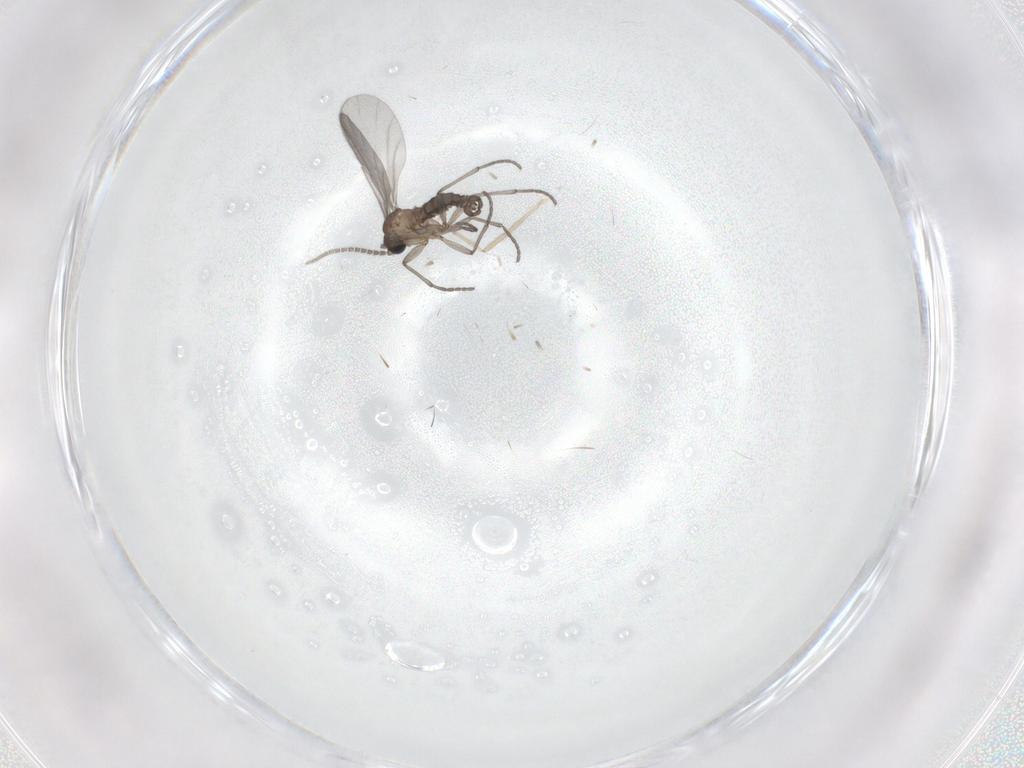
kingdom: Animalia
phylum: Arthropoda
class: Insecta
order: Diptera
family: Sciaridae
